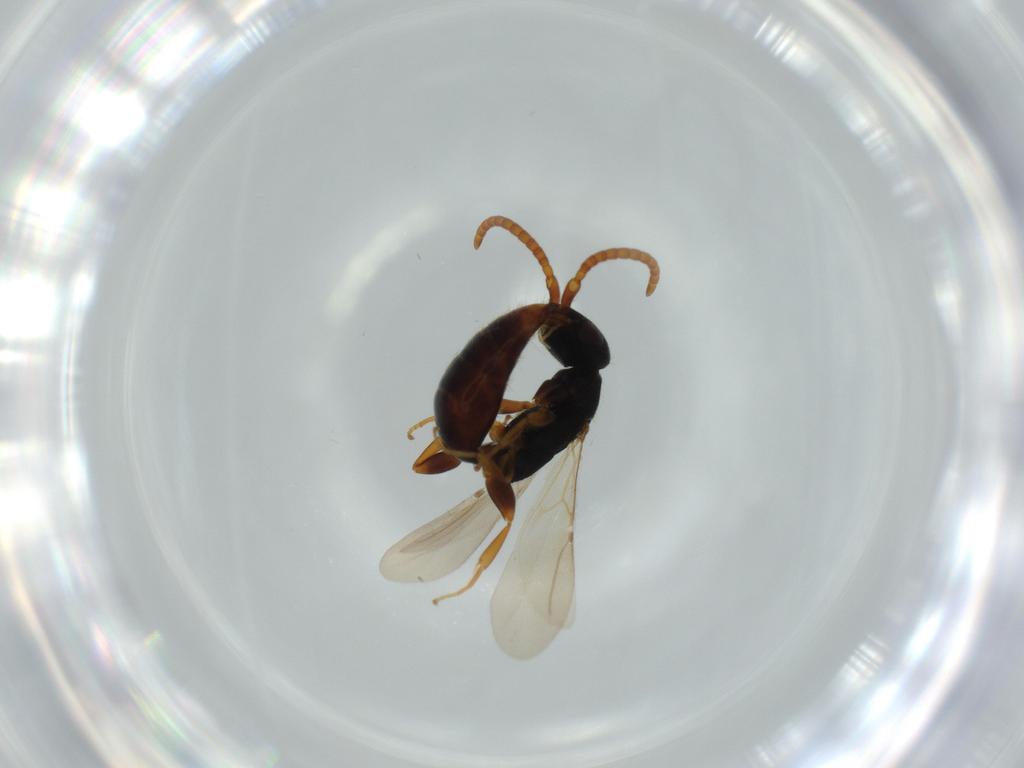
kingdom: Animalia
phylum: Arthropoda
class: Insecta
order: Hymenoptera
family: Bethylidae
